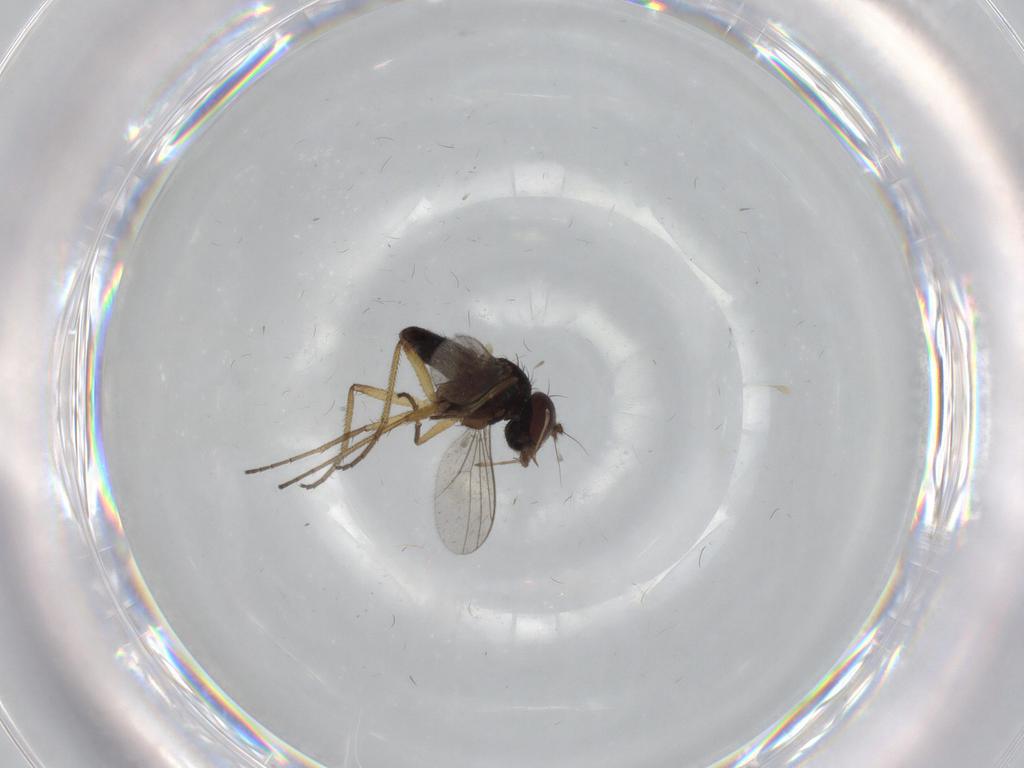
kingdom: Animalia
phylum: Arthropoda
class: Insecta
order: Diptera
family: Dolichopodidae
